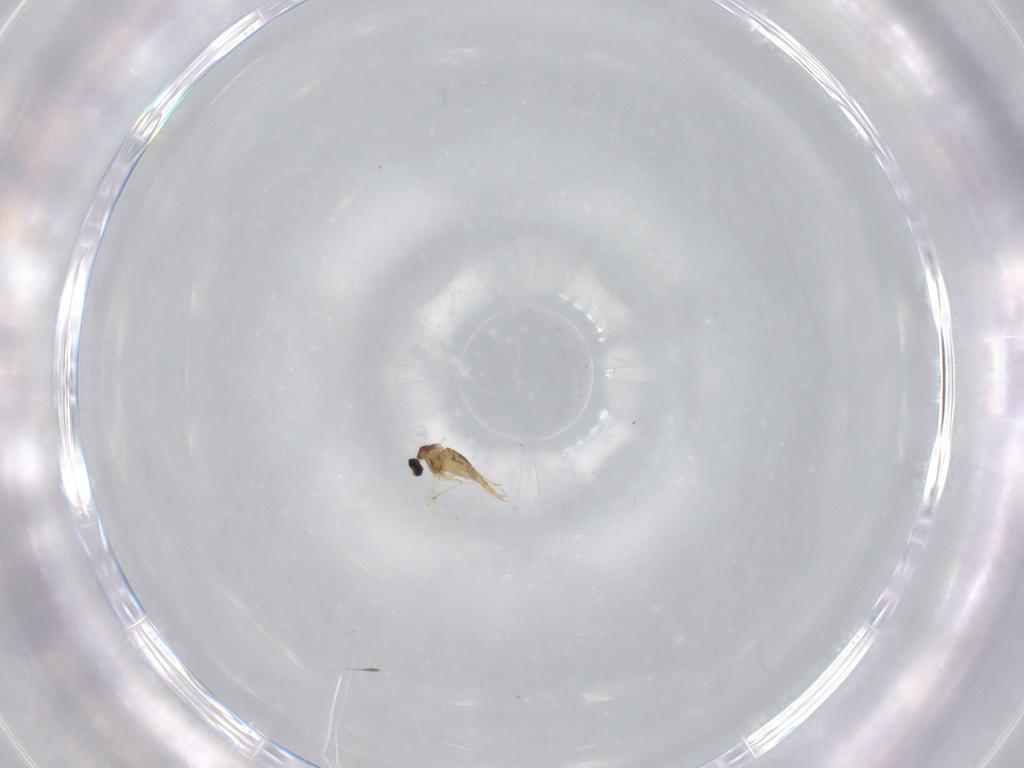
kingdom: Animalia
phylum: Arthropoda
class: Insecta
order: Diptera
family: Cecidomyiidae
